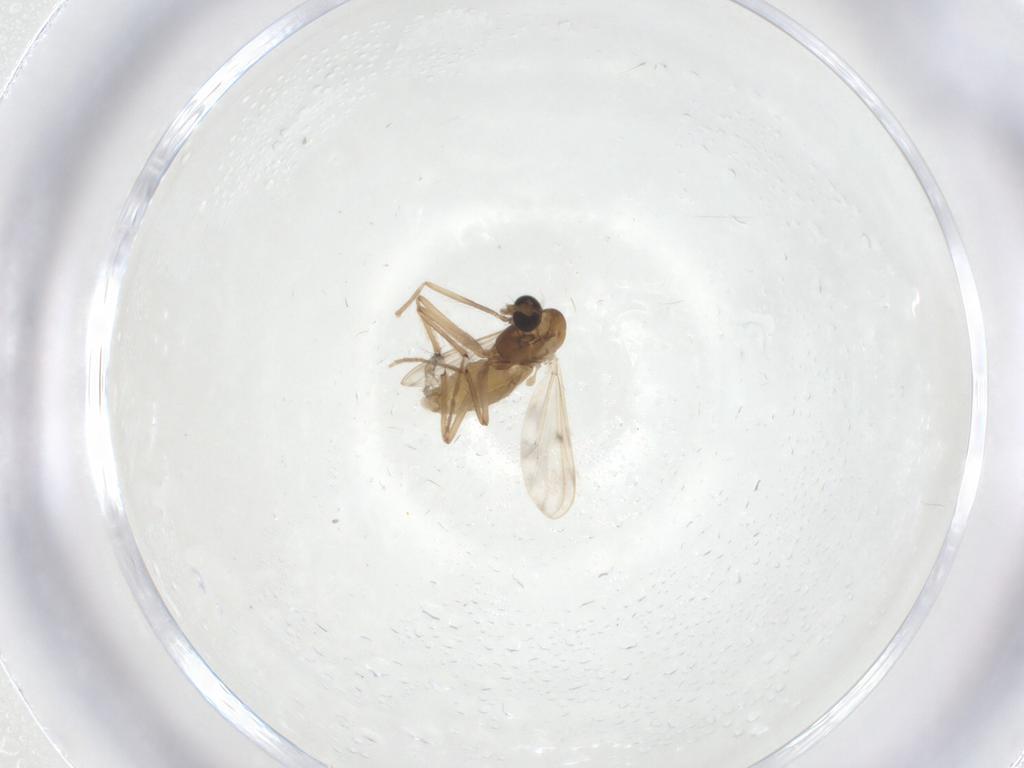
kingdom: Animalia
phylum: Arthropoda
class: Insecta
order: Diptera
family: Chironomidae
